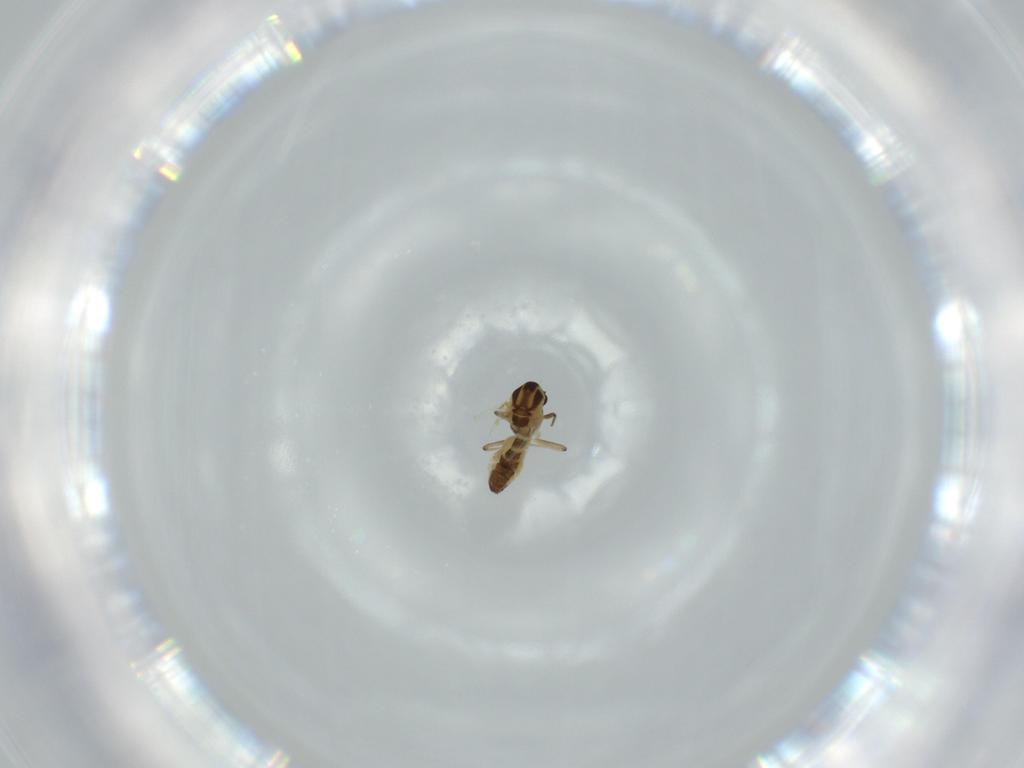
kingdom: Animalia
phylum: Arthropoda
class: Insecta
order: Diptera
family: Chironomidae
